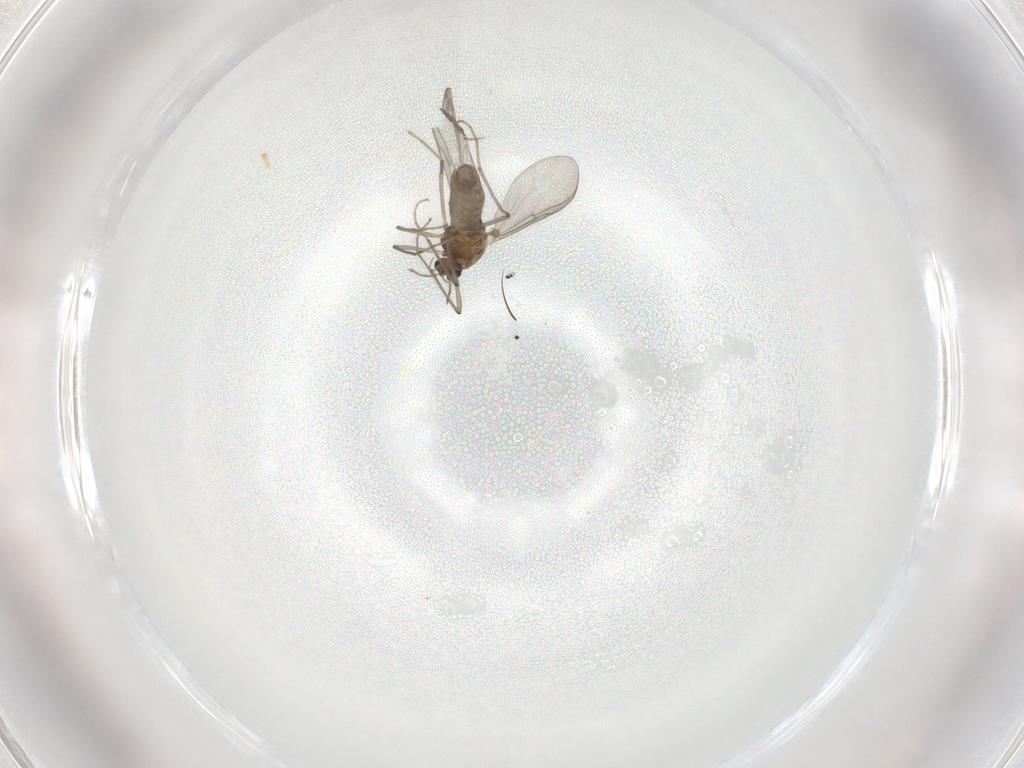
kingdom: Animalia
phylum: Arthropoda
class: Insecta
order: Diptera
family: Chironomidae
